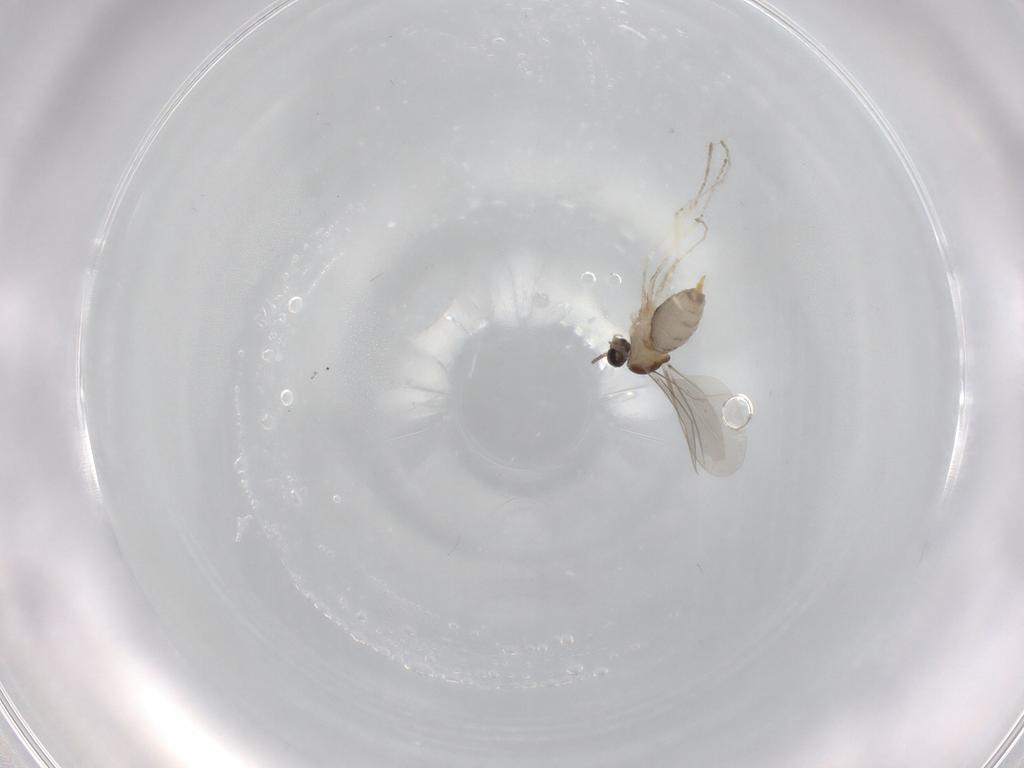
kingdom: Animalia
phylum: Arthropoda
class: Insecta
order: Diptera
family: Cecidomyiidae
